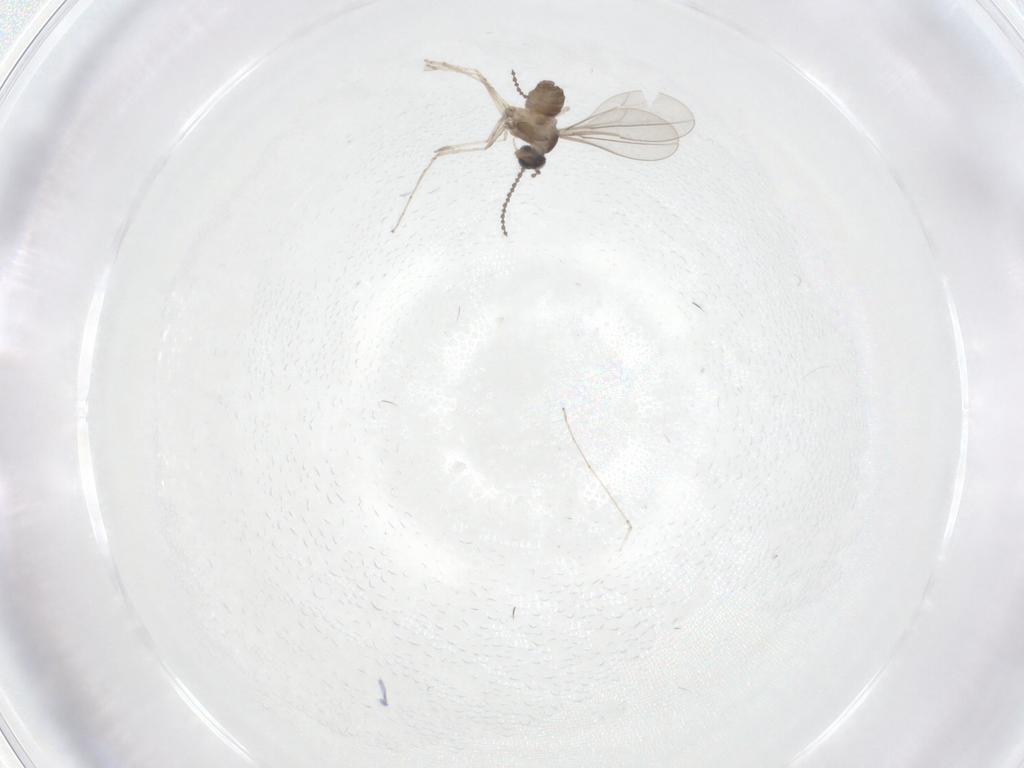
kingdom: Animalia
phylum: Arthropoda
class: Insecta
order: Diptera
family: Cecidomyiidae
